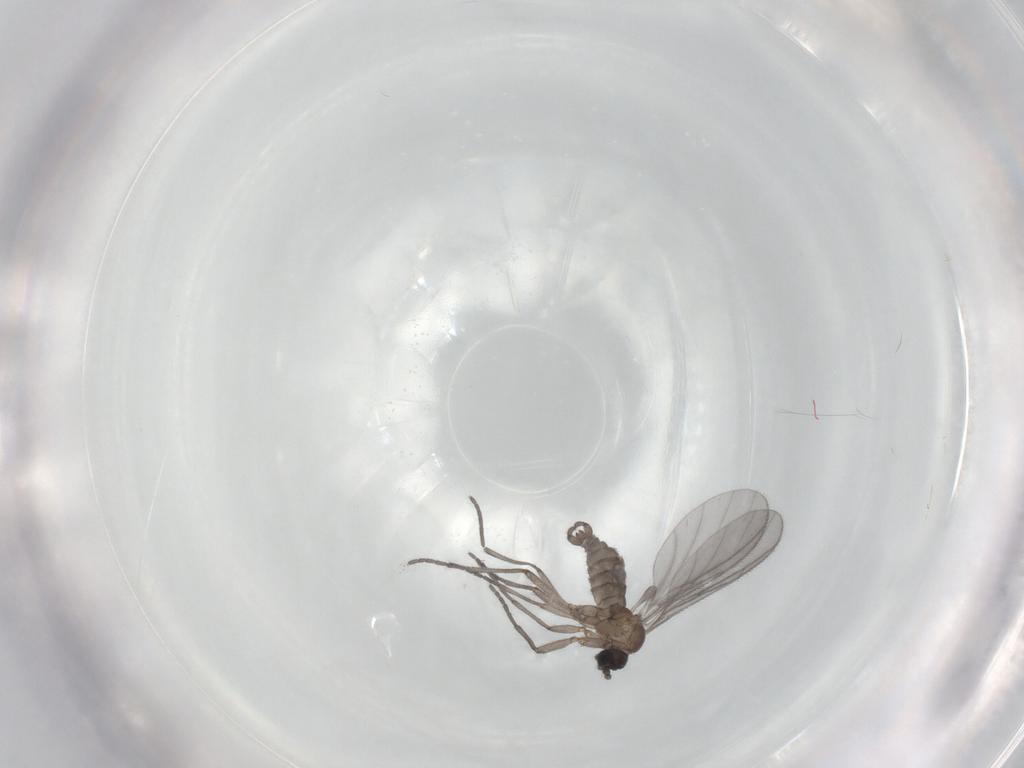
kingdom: Animalia
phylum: Arthropoda
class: Insecta
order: Diptera
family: Sciaridae
